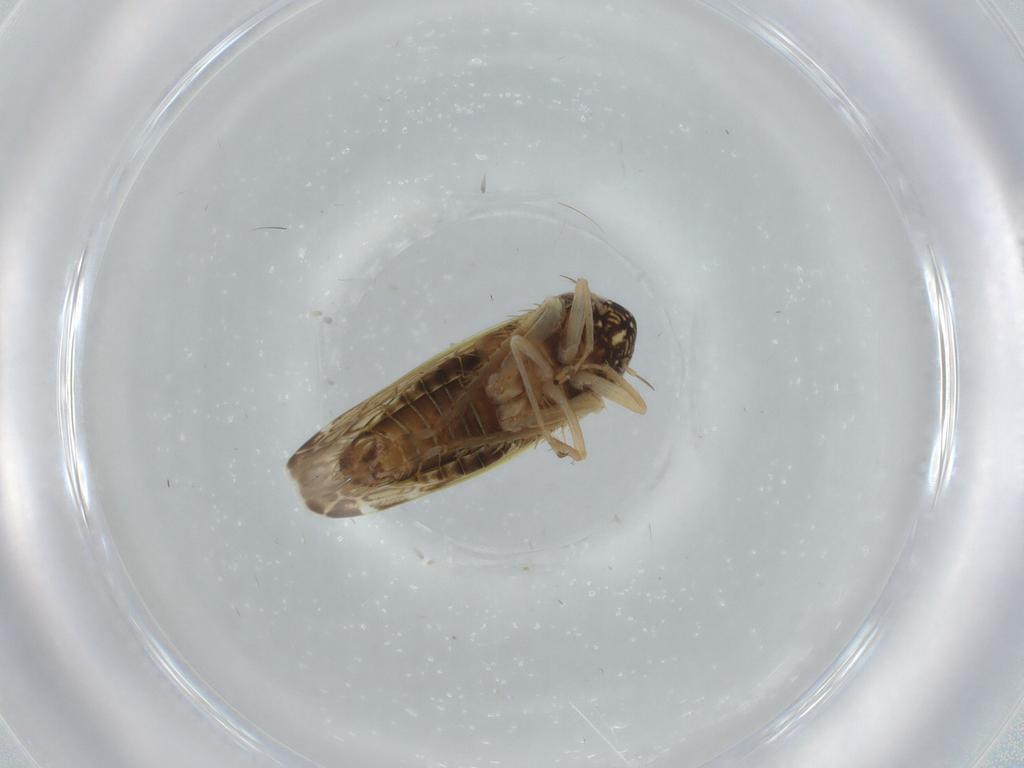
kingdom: Animalia
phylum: Arthropoda
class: Insecta
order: Hemiptera
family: Cicadellidae
